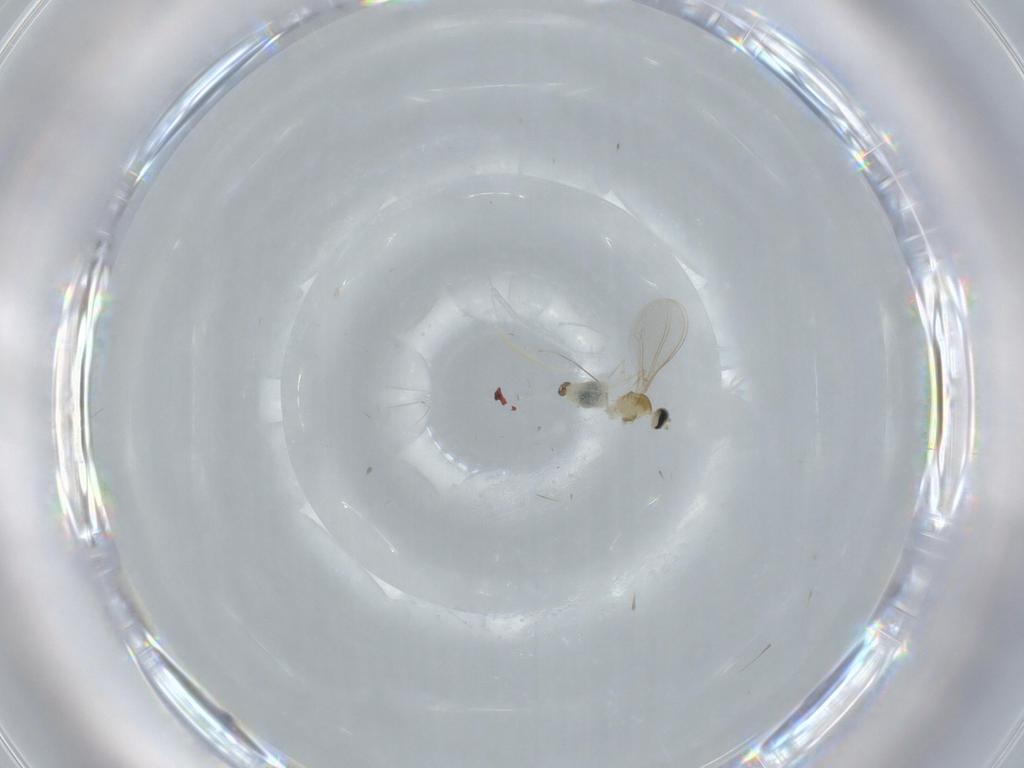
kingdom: Animalia
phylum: Arthropoda
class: Insecta
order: Diptera
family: Cecidomyiidae
